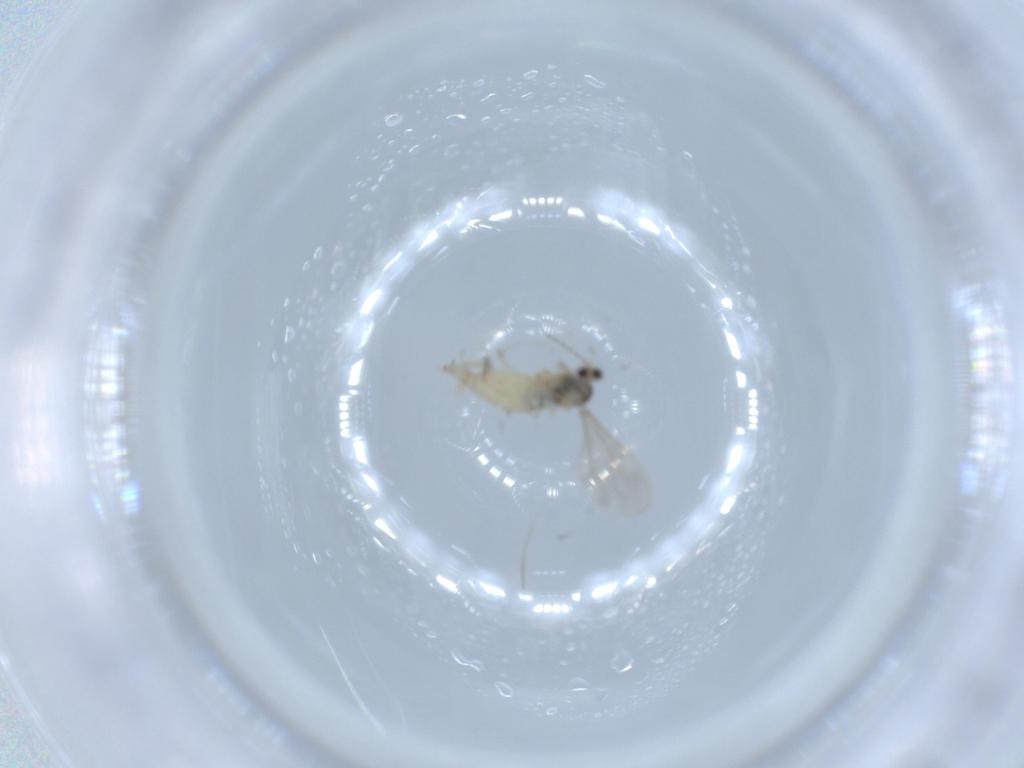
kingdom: Animalia
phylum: Arthropoda
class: Insecta
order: Diptera
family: Cecidomyiidae
